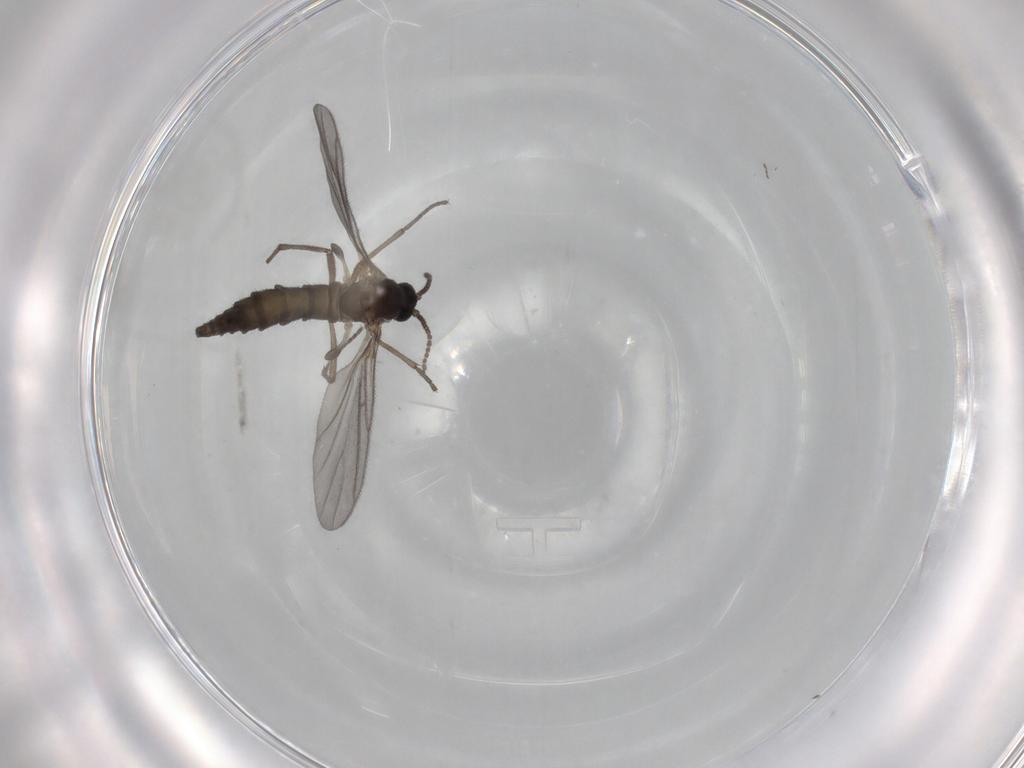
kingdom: Animalia
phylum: Arthropoda
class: Insecta
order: Diptera
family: Sciaridae
